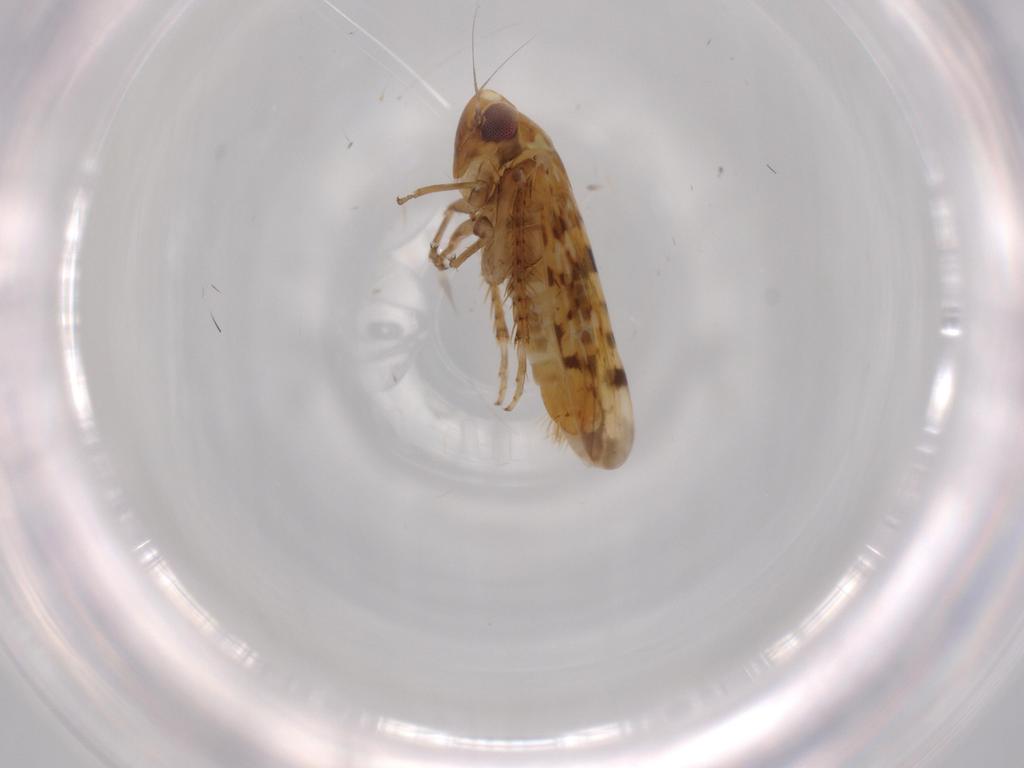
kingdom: Animalia
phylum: Arthropoda
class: Insecta
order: Hemiptera
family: Cicadellidae
